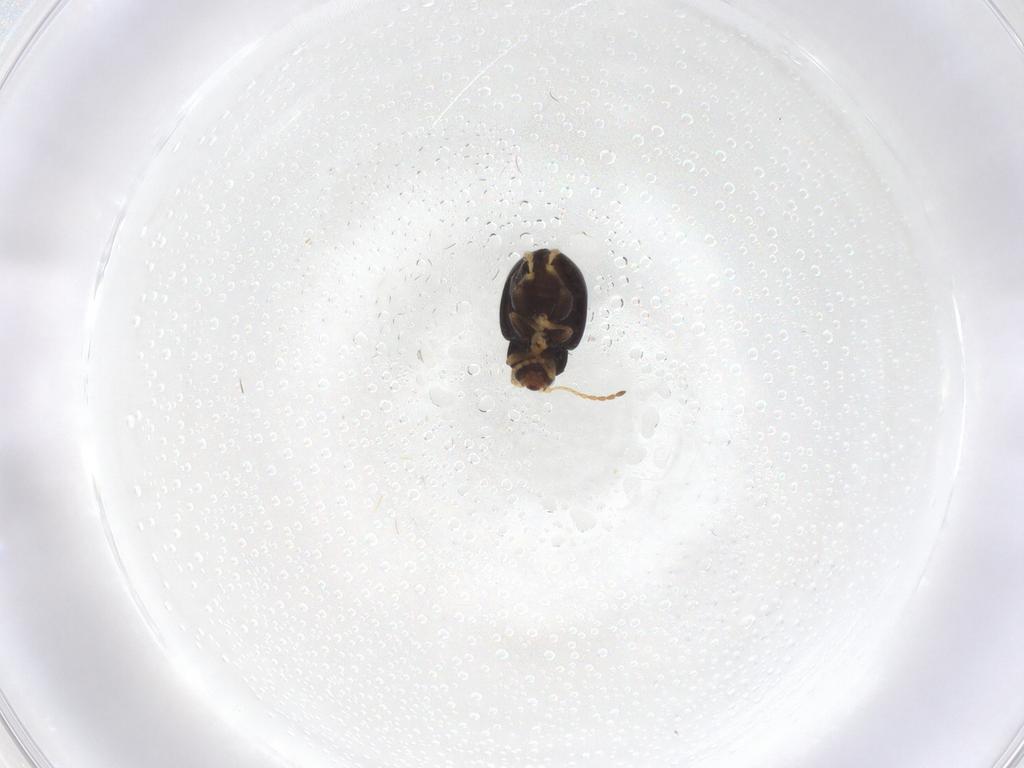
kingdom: Animalia
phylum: Arthropoda
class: Insecta
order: Coleoptera
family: Chrysomelidae
